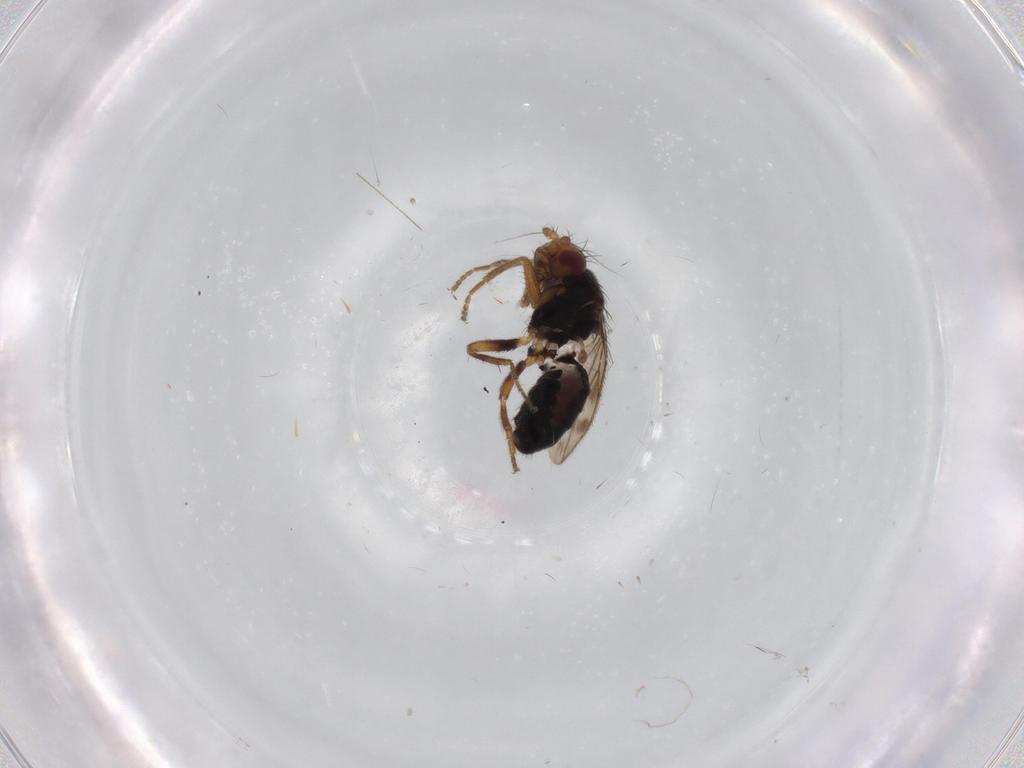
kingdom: Animalia
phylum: Arthropoda
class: Insecta
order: Diptera
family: Sphaeroceridae
